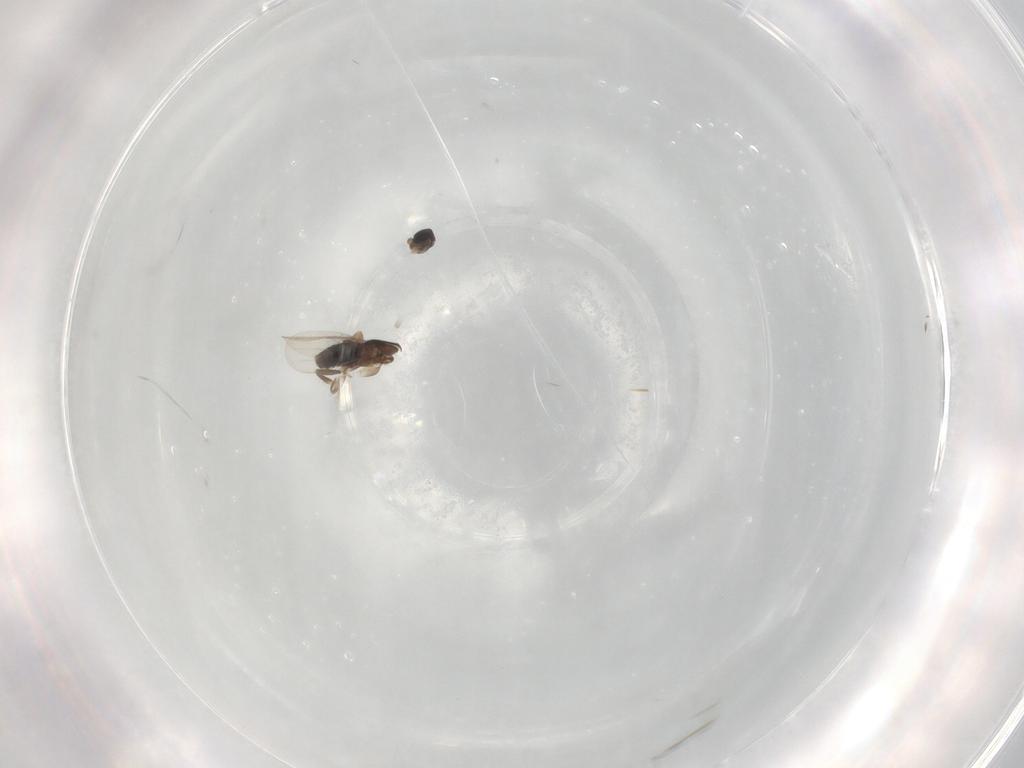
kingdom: Animalia
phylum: Arthropoda
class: Insecta
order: Diptera
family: Phoridae
